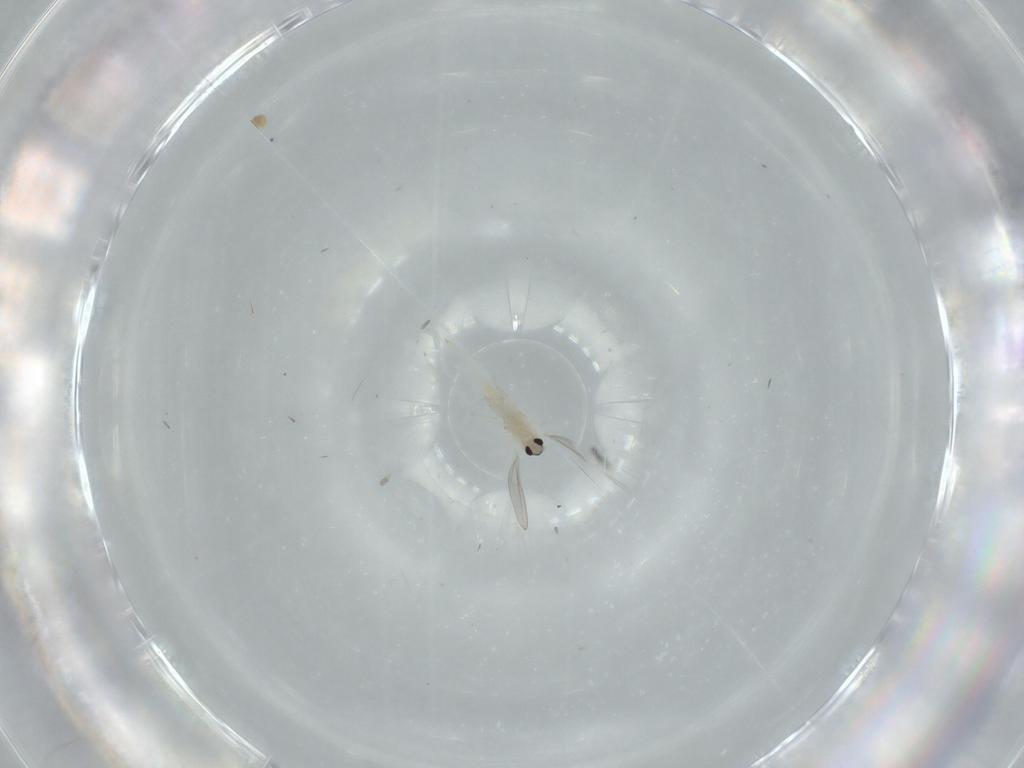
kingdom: Animalia
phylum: Arthropoda
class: Insecta
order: Diptera
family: Cecidomyiidae
